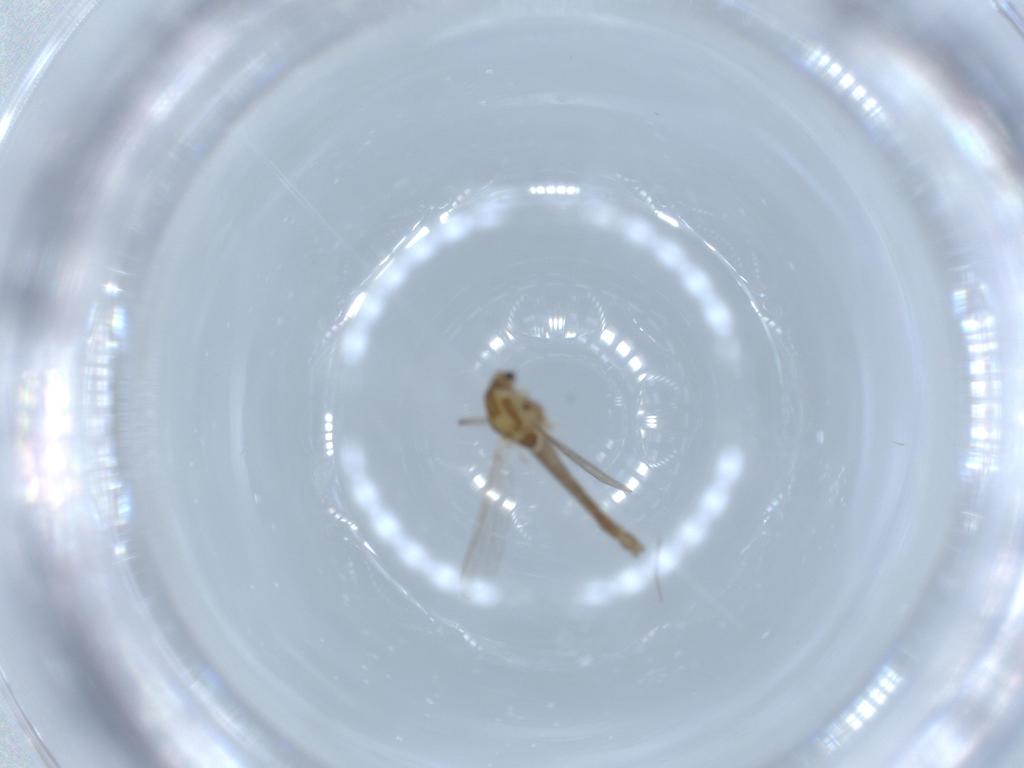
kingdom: Animalia
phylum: Arthropoda
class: Insecta
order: Diptera
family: Chironomidae
